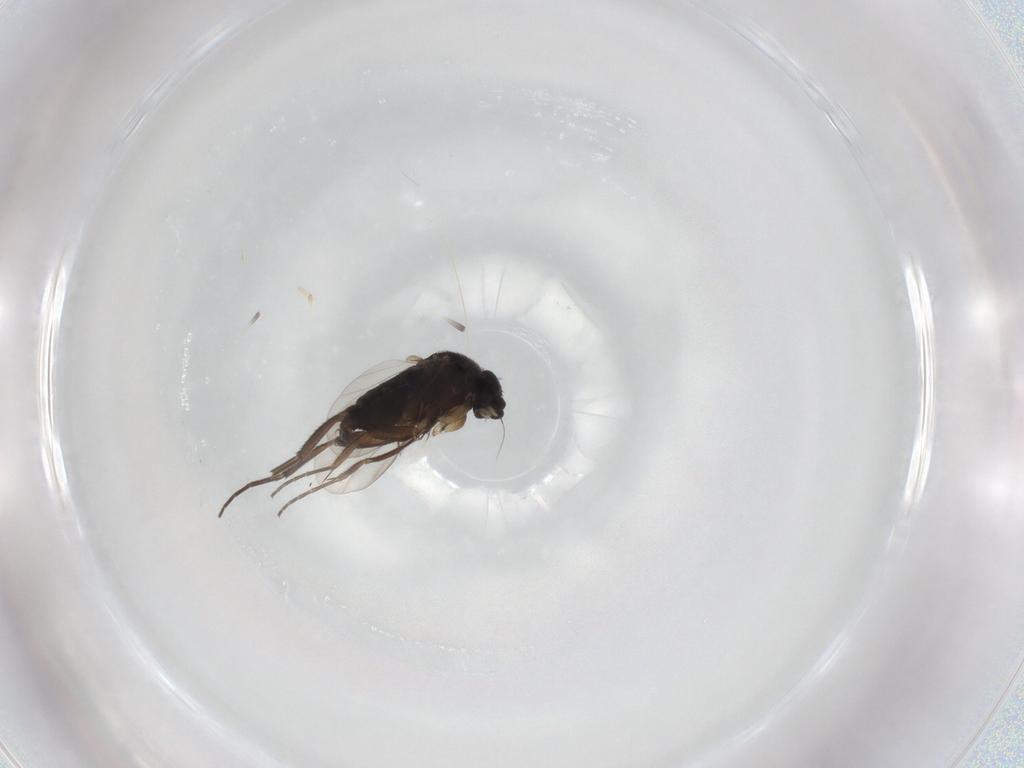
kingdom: Animalia
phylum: Arthropoda
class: Insecta
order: Diptera
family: Phoridae
